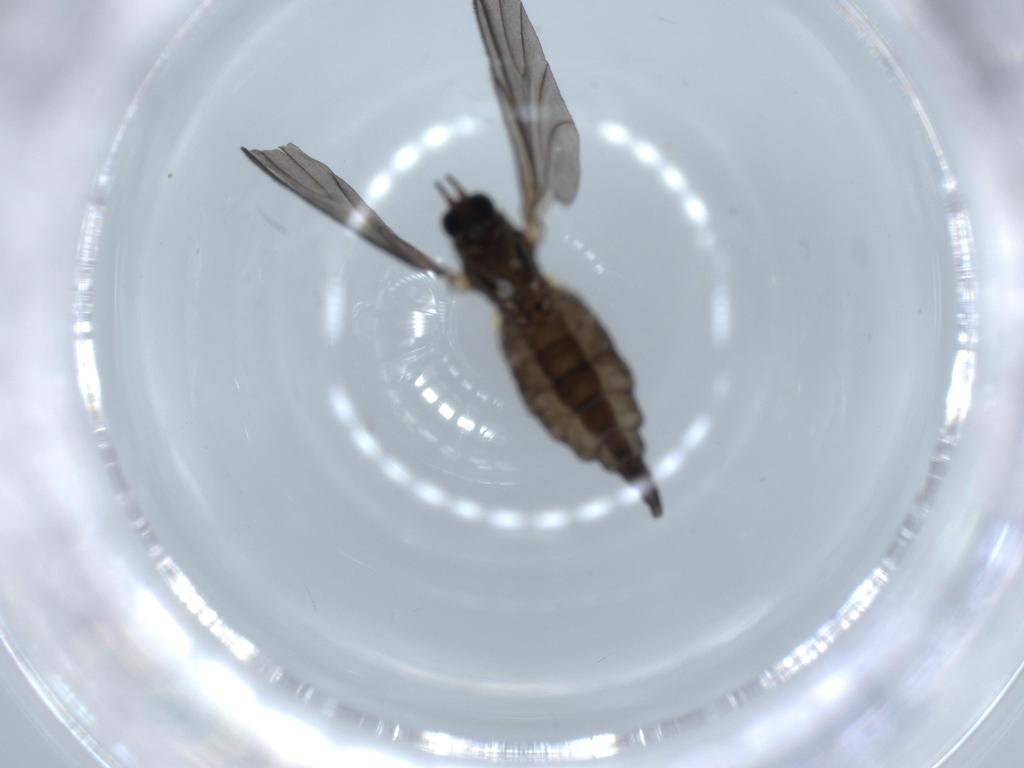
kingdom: Animalia
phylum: Arthropoda
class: Insecta
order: Diptera
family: Sciaridae
